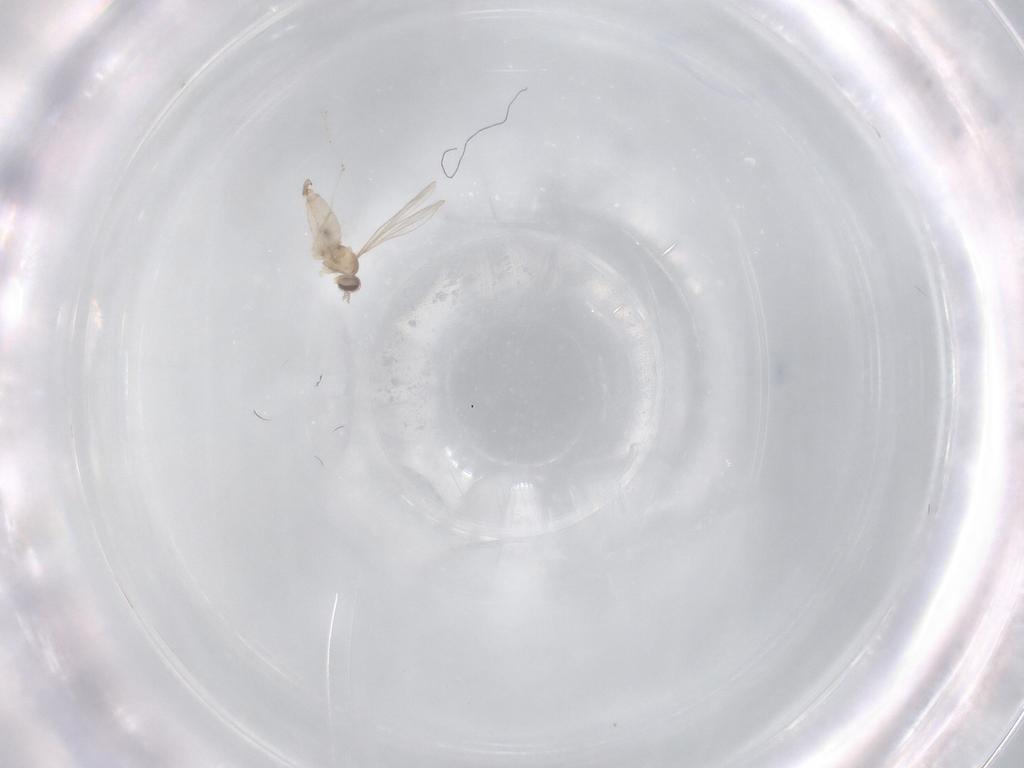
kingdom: Animalia
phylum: Arthropoda
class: Insecta
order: Diptera
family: Cecidomyiidae
